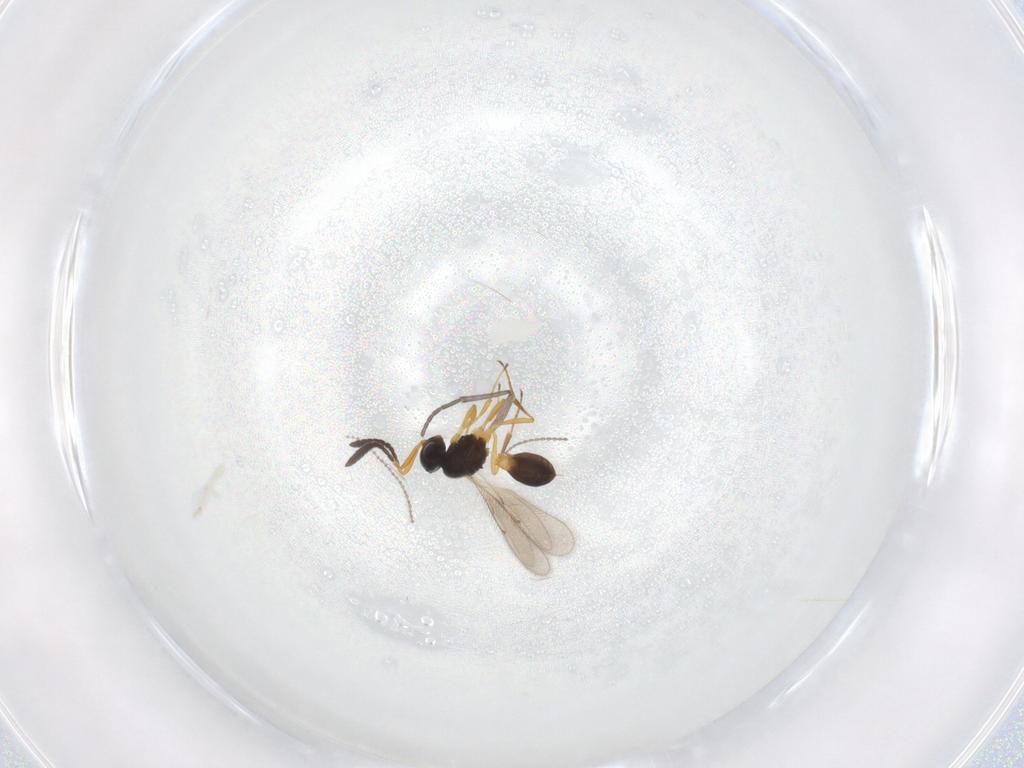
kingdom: Animalia
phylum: Arthropoda
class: Insecta
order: Hymenoptera
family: Scelionidae
